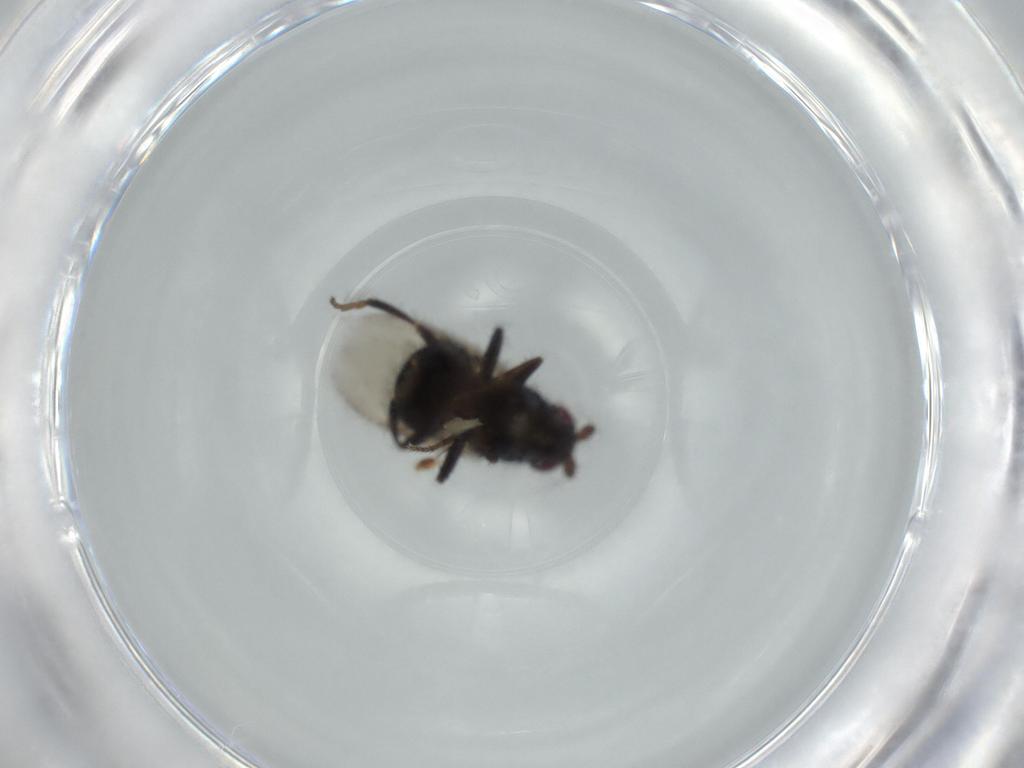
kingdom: Animalia
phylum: Arthropoda
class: Insecta
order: Diptera
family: Sphaeroceridae
